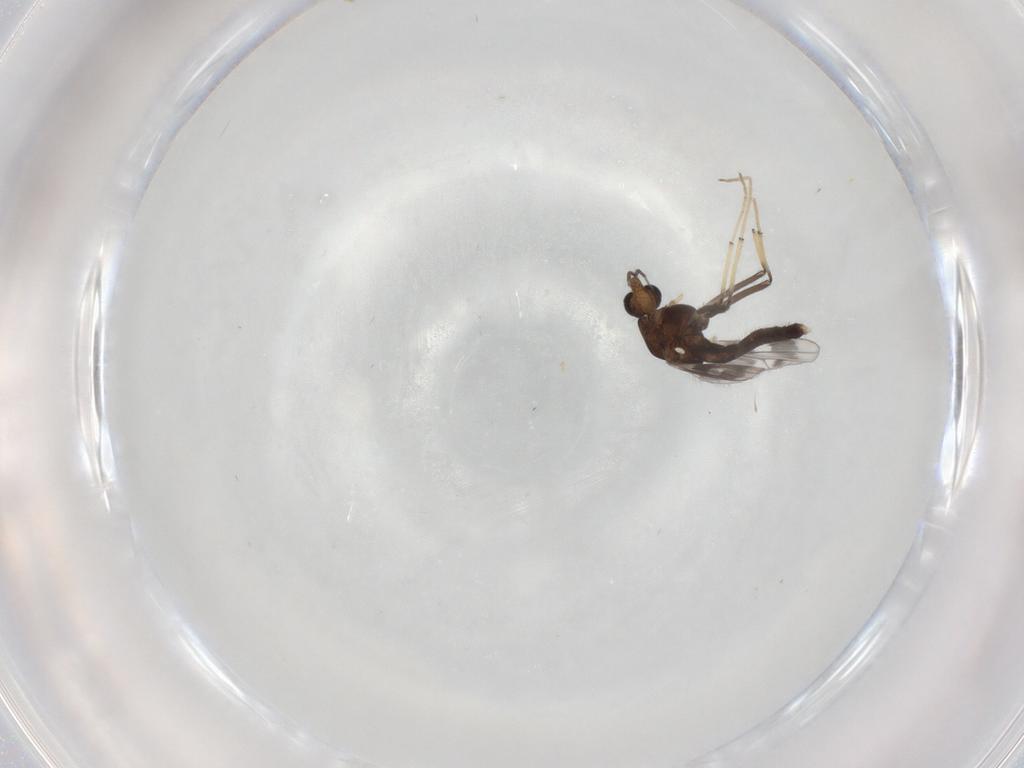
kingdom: Animalia
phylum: Arthropoda
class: Insecta
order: Diptera
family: Chironomidae
